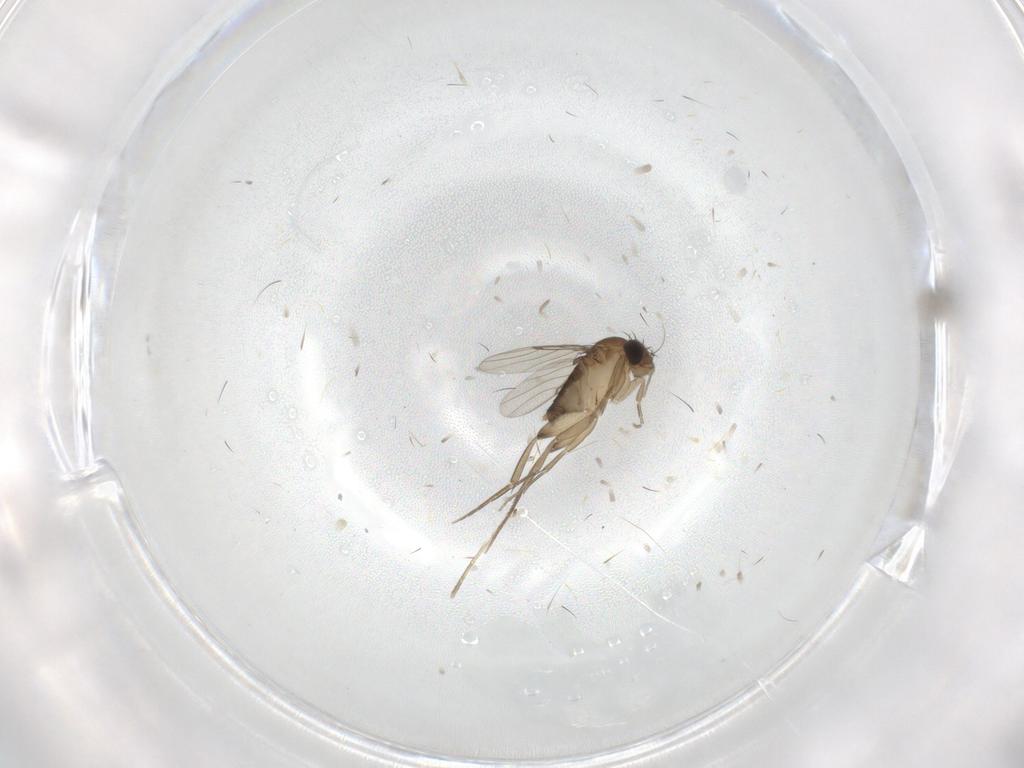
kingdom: Animalia
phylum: Arthropoda
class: Insecta
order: Diptera
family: Phoridae
